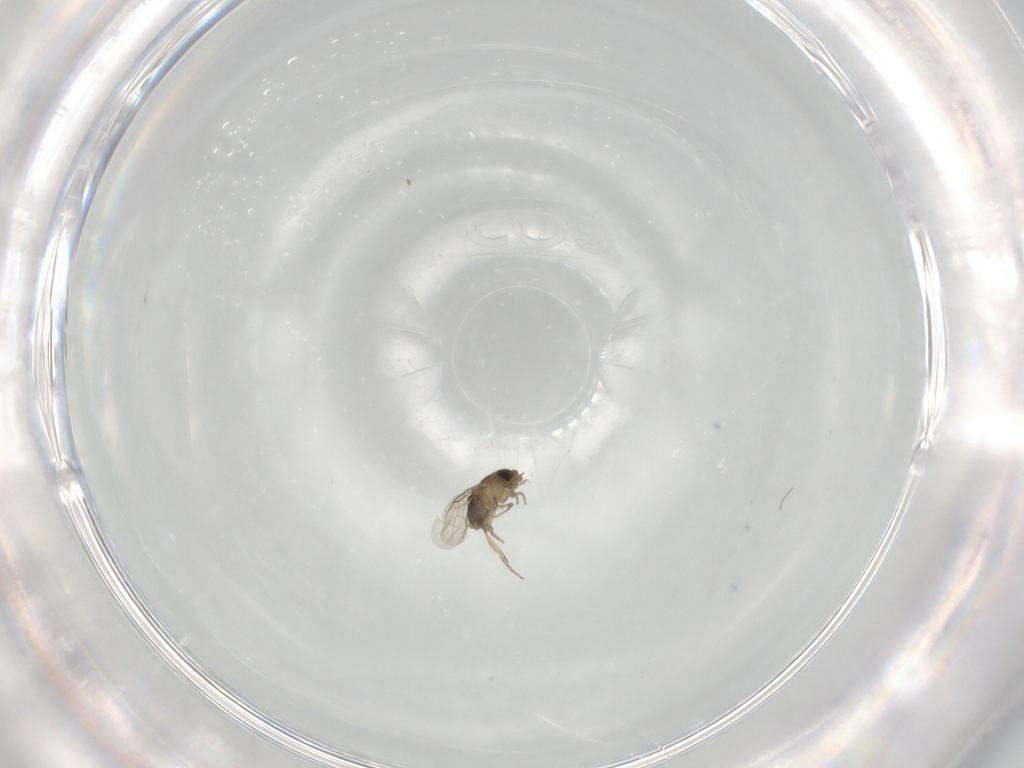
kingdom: Animalia
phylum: Arthropoda
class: Insecta
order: Diptera
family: Phoridae
